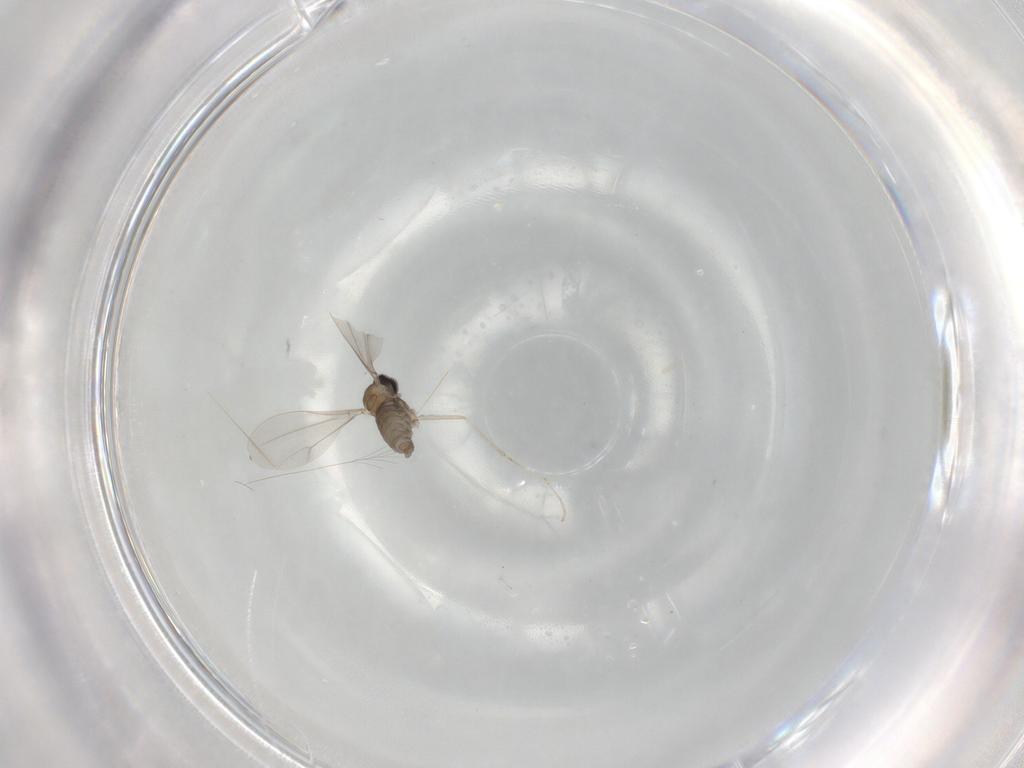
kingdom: Animalia
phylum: Arthropoda
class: Insecta
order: Diptera
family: Cecidomyiidae
